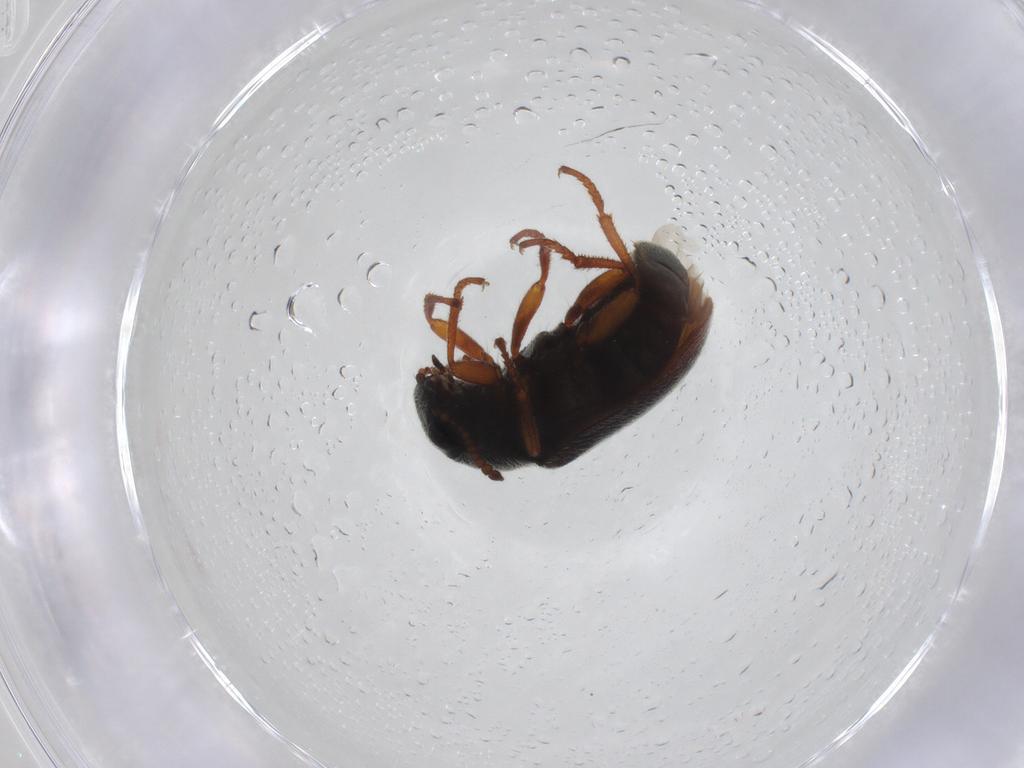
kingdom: Animalia
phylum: Arthropoda
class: Insecta
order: Coleoptera
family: Melyridae
